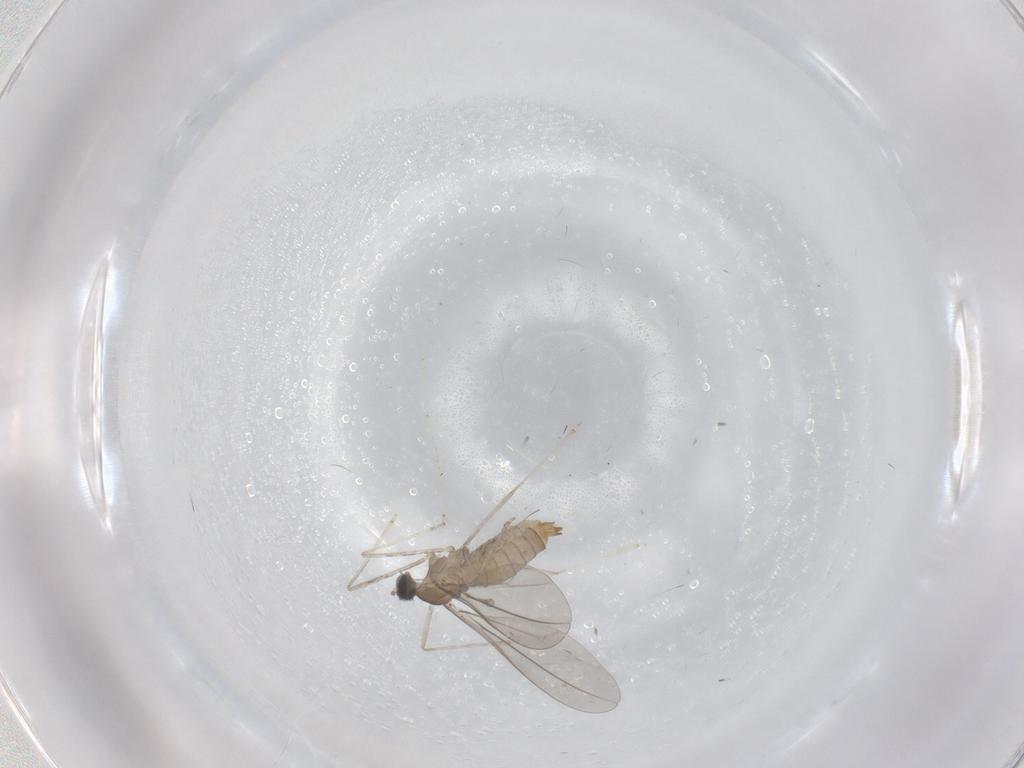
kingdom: Animalia
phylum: Arthropoda
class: Insecta
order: Diptera
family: Cecidomyiidae
